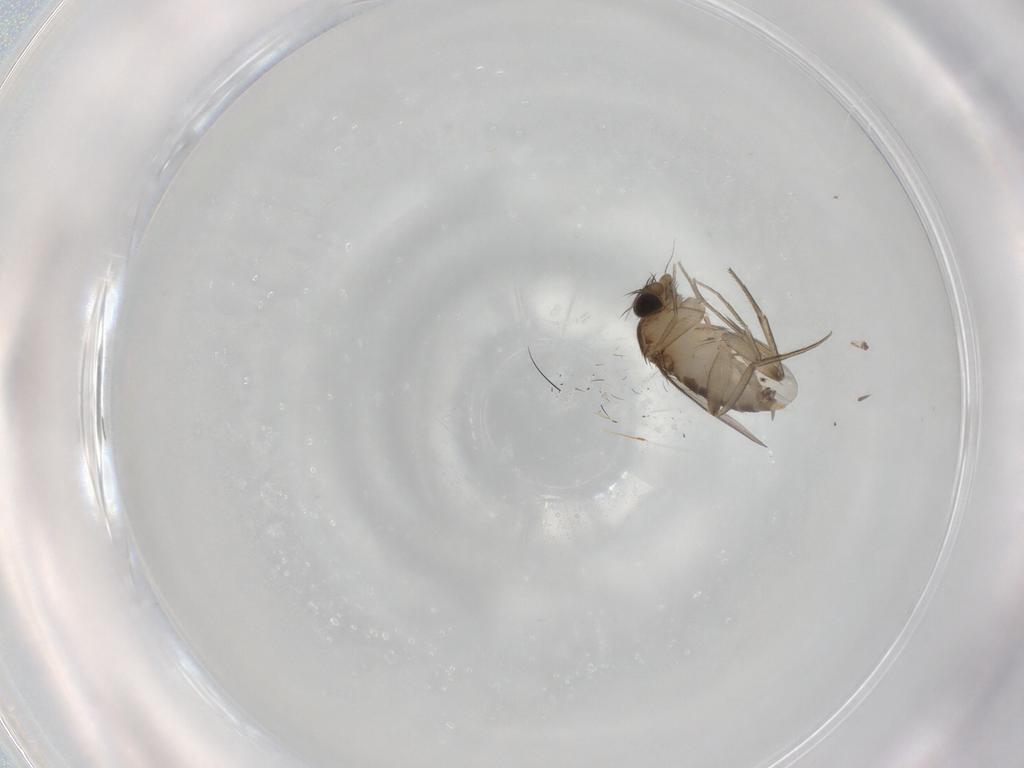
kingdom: Animalia
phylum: Arthropoda
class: Insecta
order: Diptera
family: Phoridae
